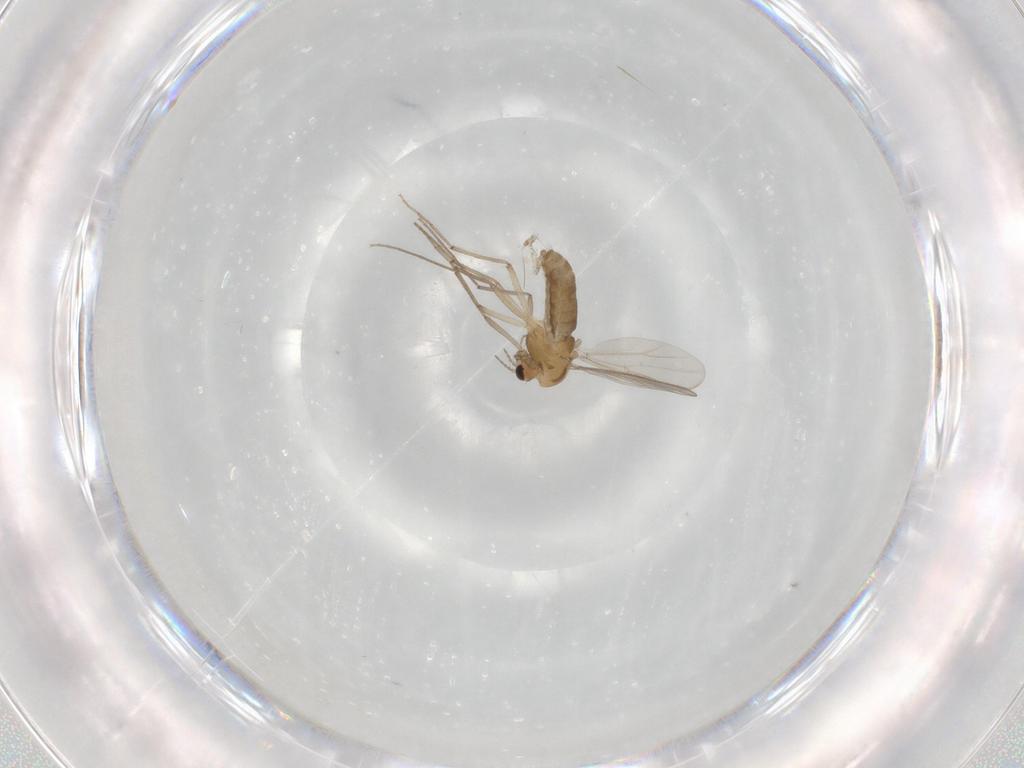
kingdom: Animalia
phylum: Arthropoda
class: Insecta
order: Diptera
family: Chironomidae
